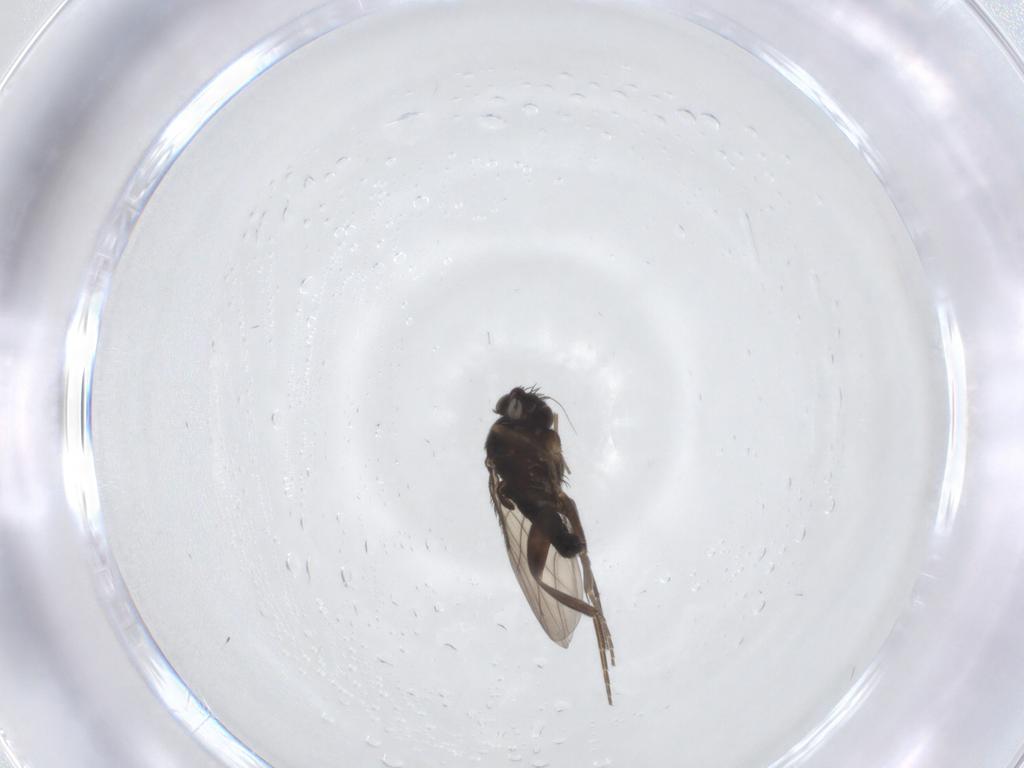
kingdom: Animalia
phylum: Arthropoda
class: Insecta
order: Diptera
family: Phoridae
